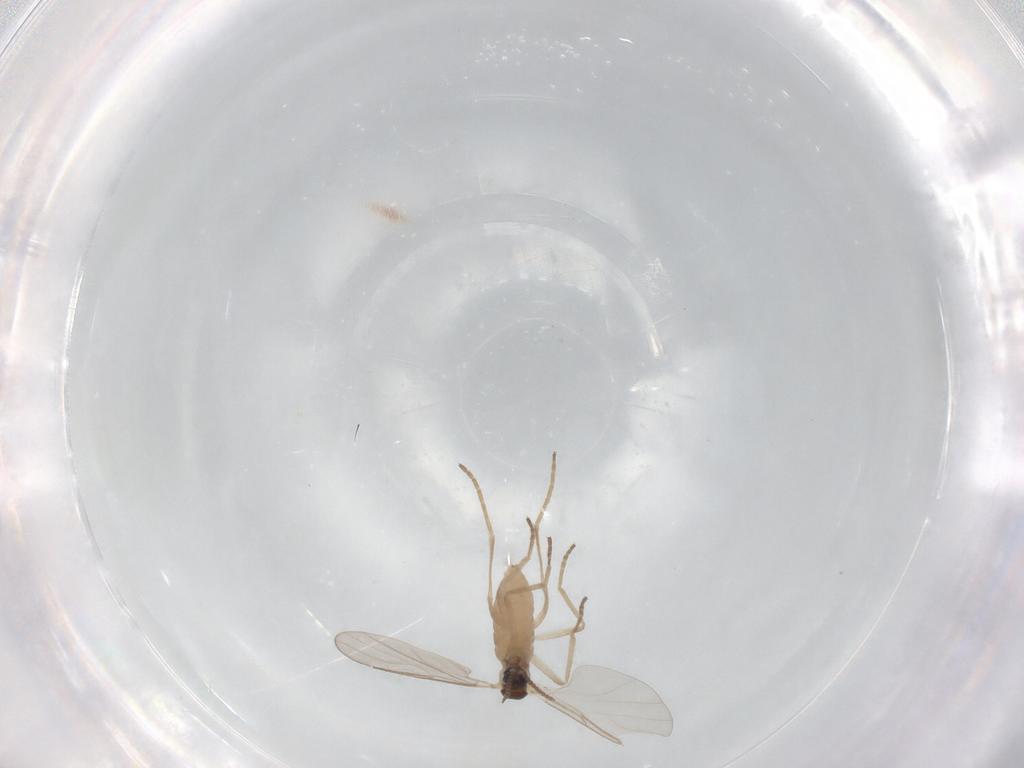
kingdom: Animalia
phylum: Arthropoda
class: Insecta
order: Diptera
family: Cecidomyiidae
